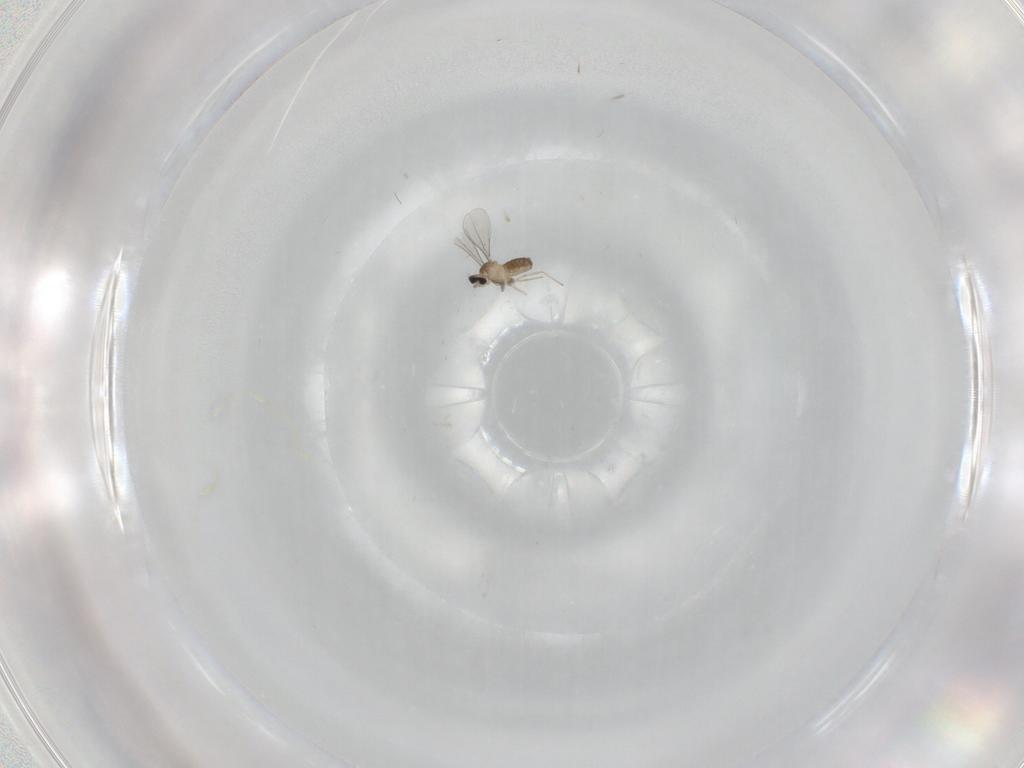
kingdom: Animalia
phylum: Arthropoda
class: Insecta
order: Diptera
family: Cecidomyiidae
